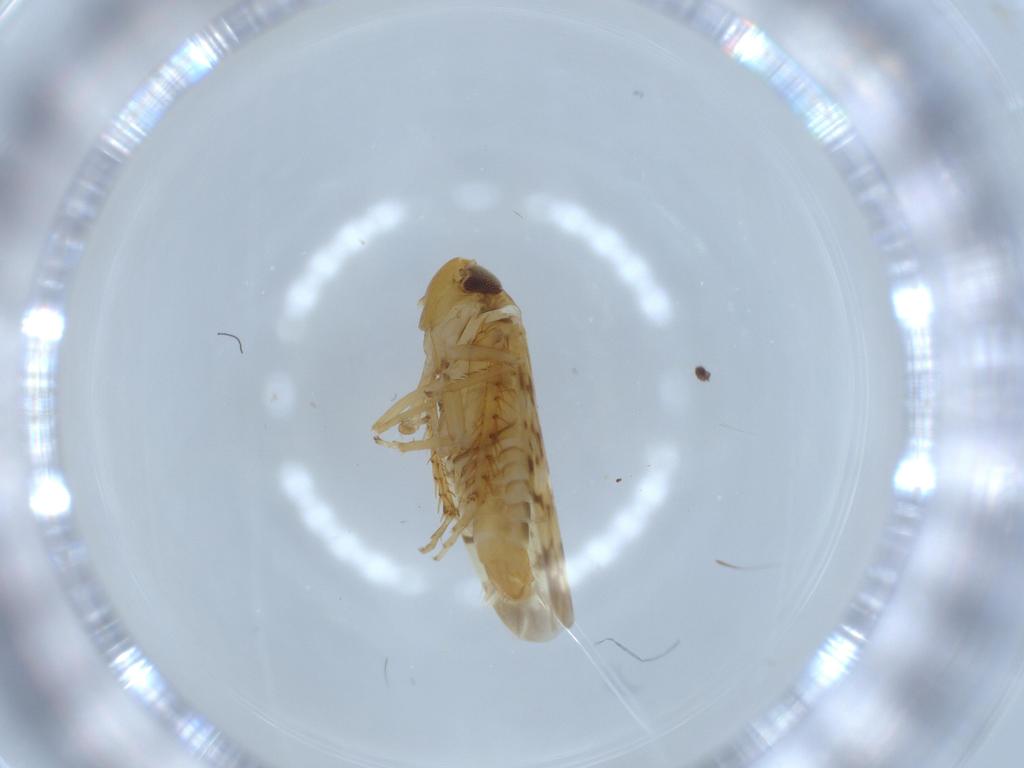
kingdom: Animalia
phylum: Arthropoda
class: Insecta
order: Hemiptera
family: Cicadellidae
